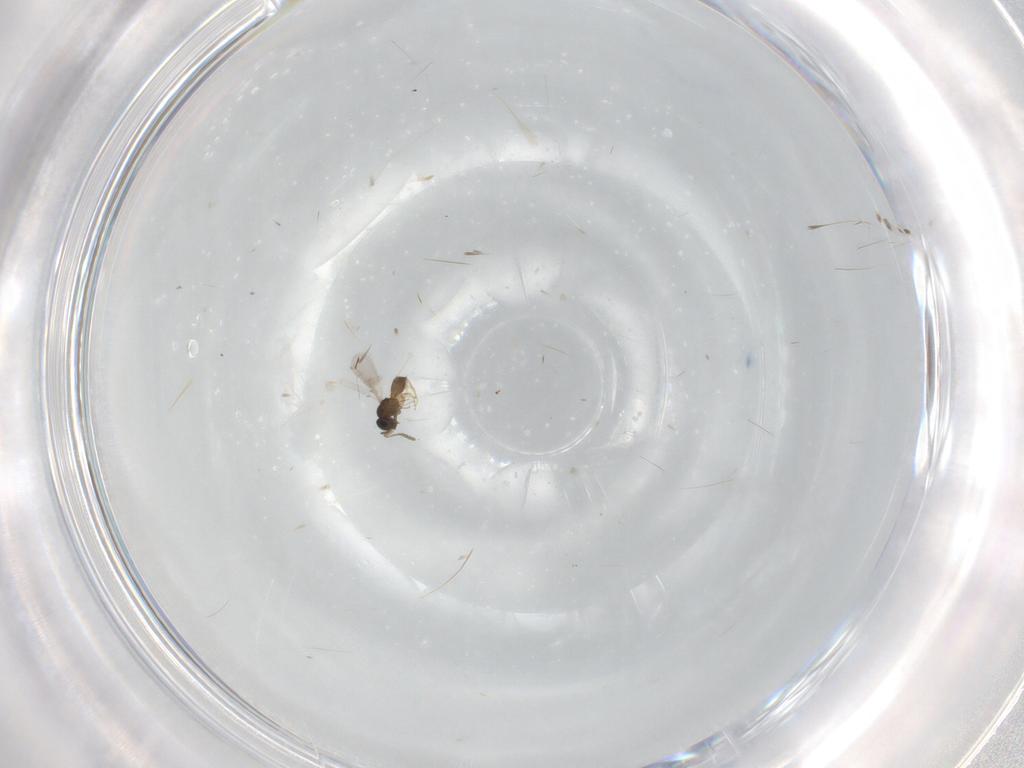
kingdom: Animalia
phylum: Arthropoda
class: Insecta
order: Hymenoptera
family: Scelionidae
